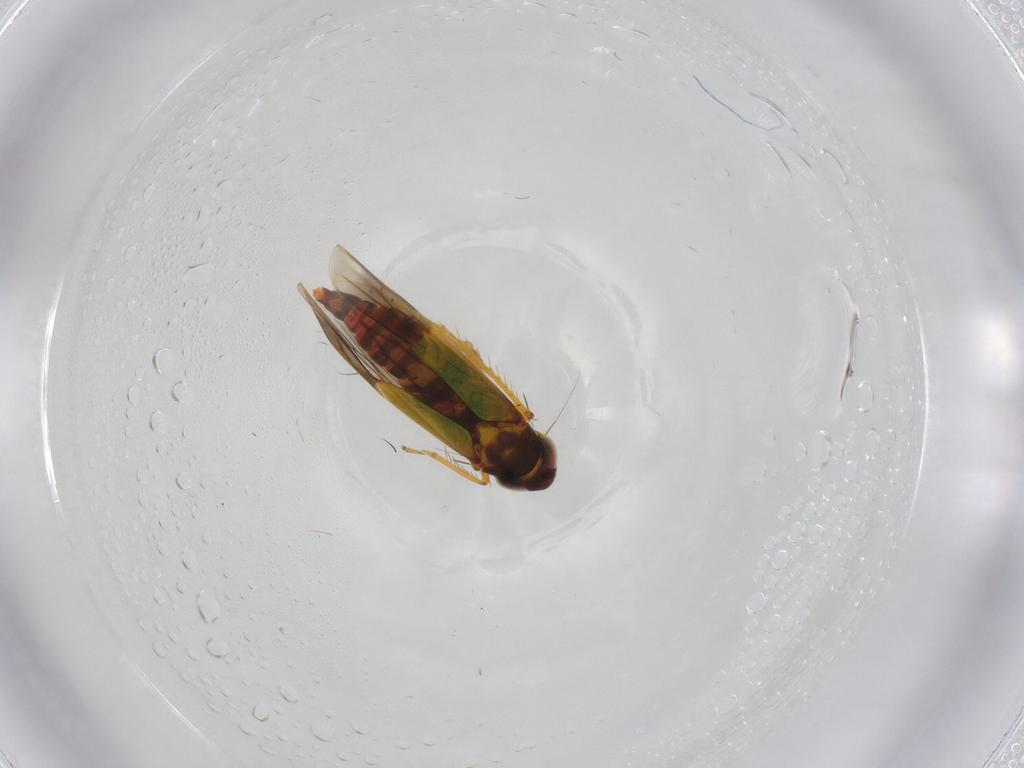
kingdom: Animalia
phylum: Arthropoda
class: Insecta
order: Hemiptera
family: Cicadellidae
